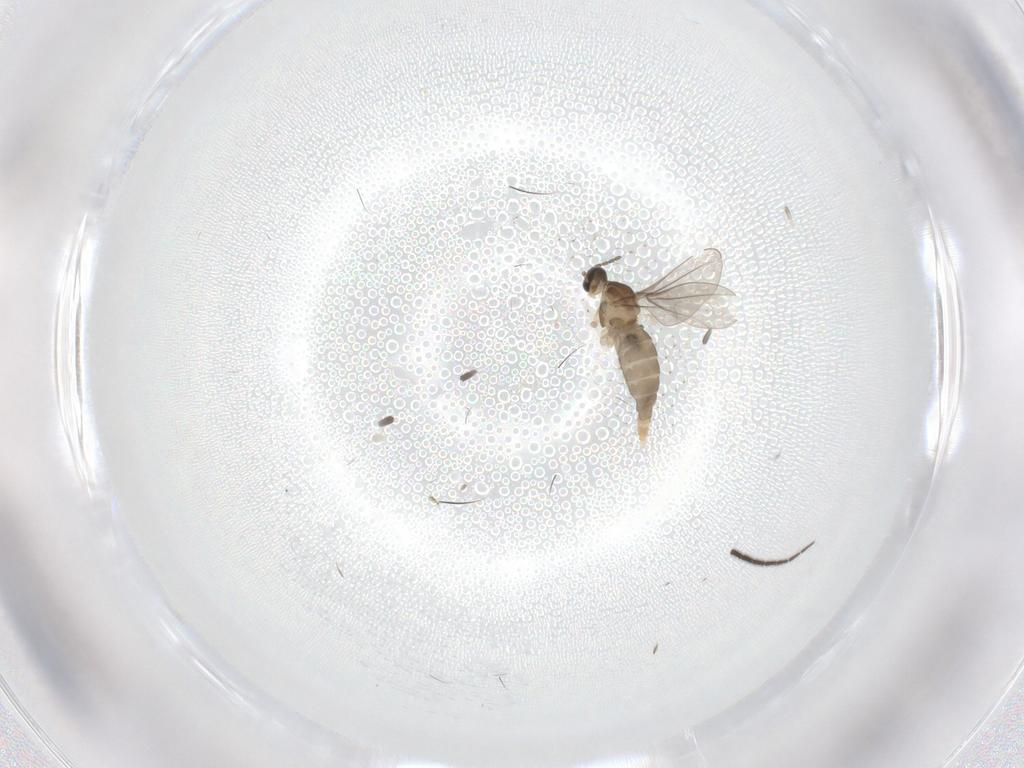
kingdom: Animalia
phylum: Arthropoda
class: Insecta
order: Diptera
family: Cecidomyiidae
